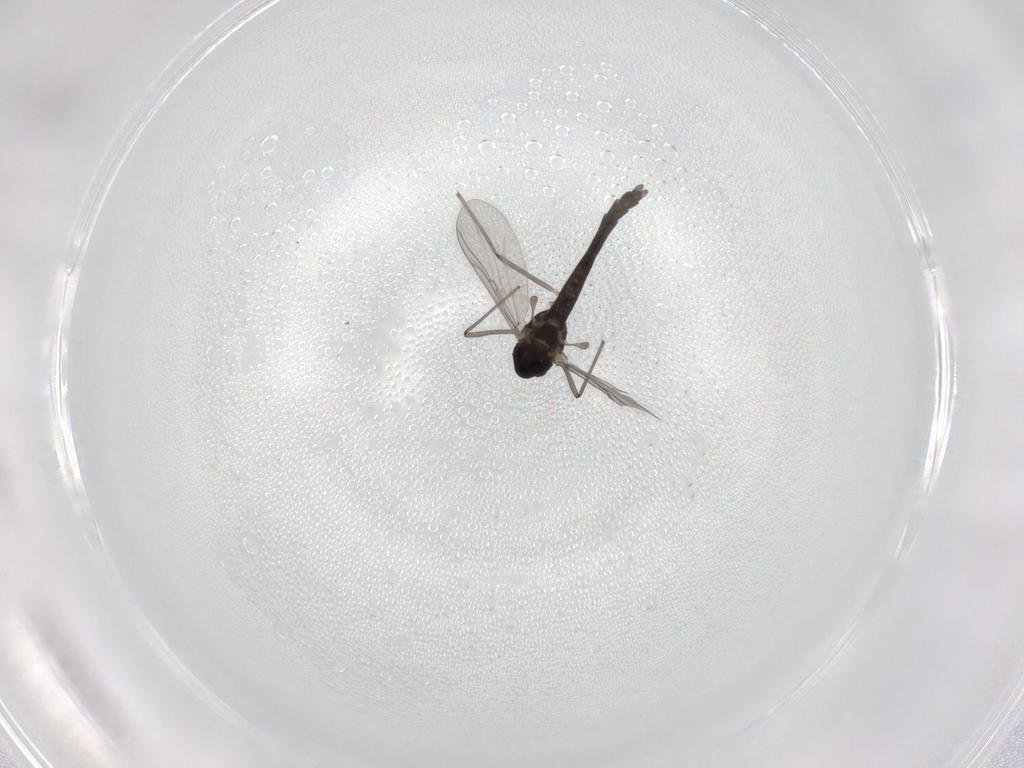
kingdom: Animalia
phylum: Arthropoda
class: Insecta
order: Diptera
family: Chironomidae
